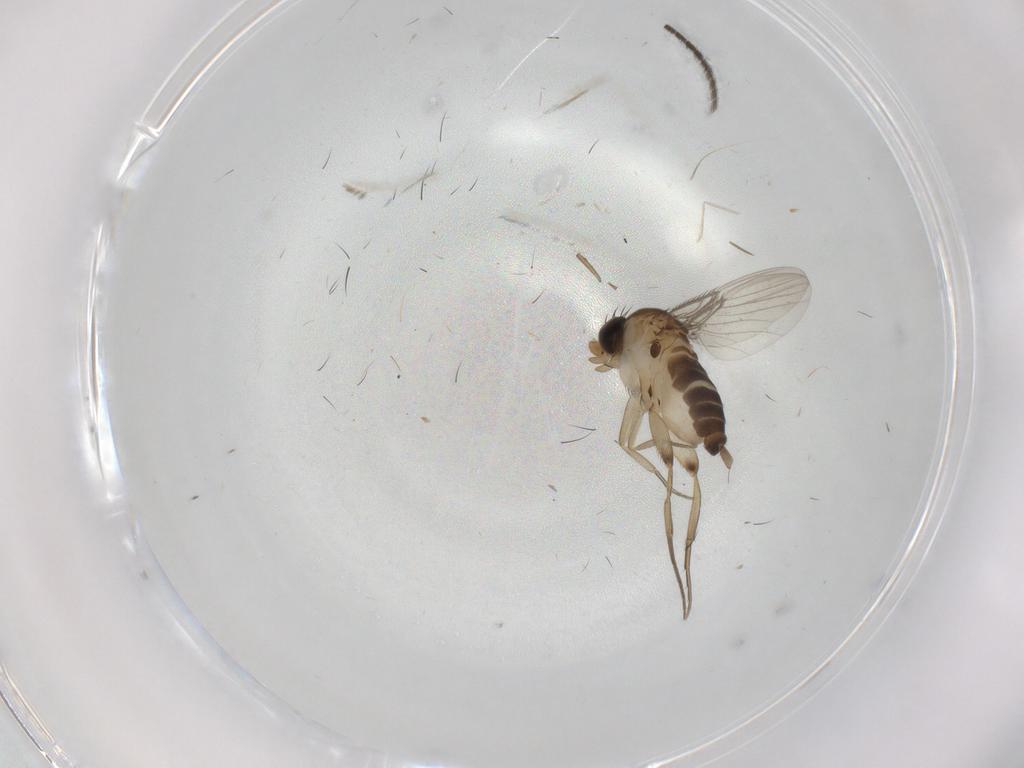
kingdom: Animalia
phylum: Arthropoda
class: Insecta
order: Diptera
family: Phoridae
